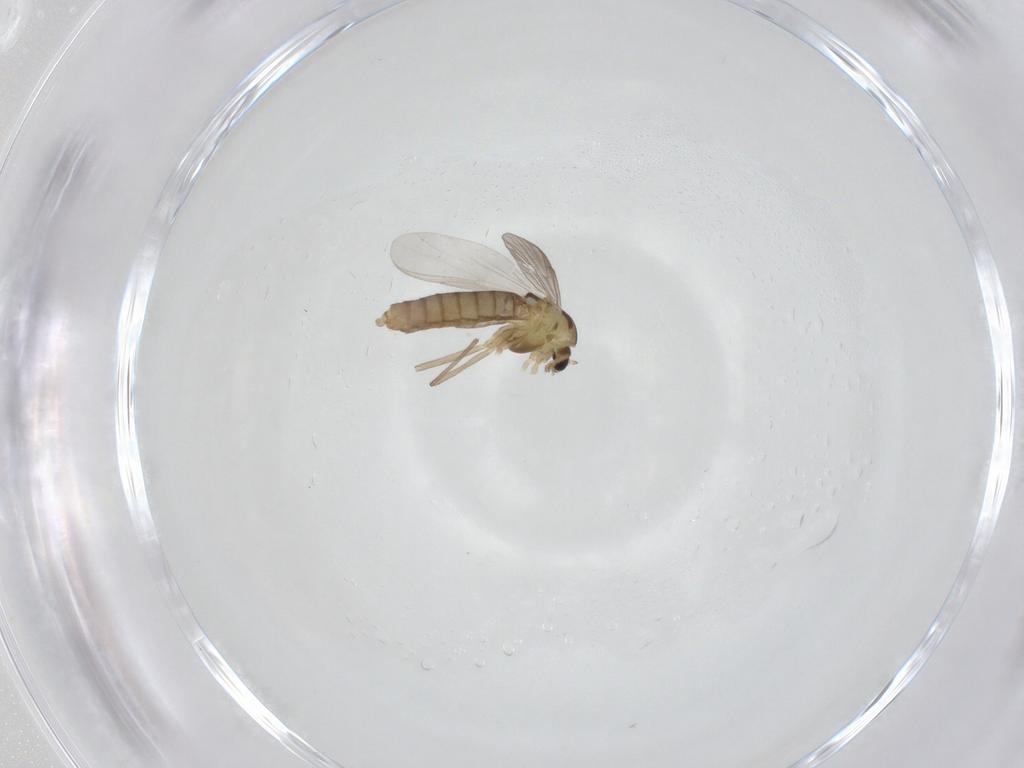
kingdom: Animalia
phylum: Arthropoda
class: Insecta
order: Diptera
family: Chironomidae
